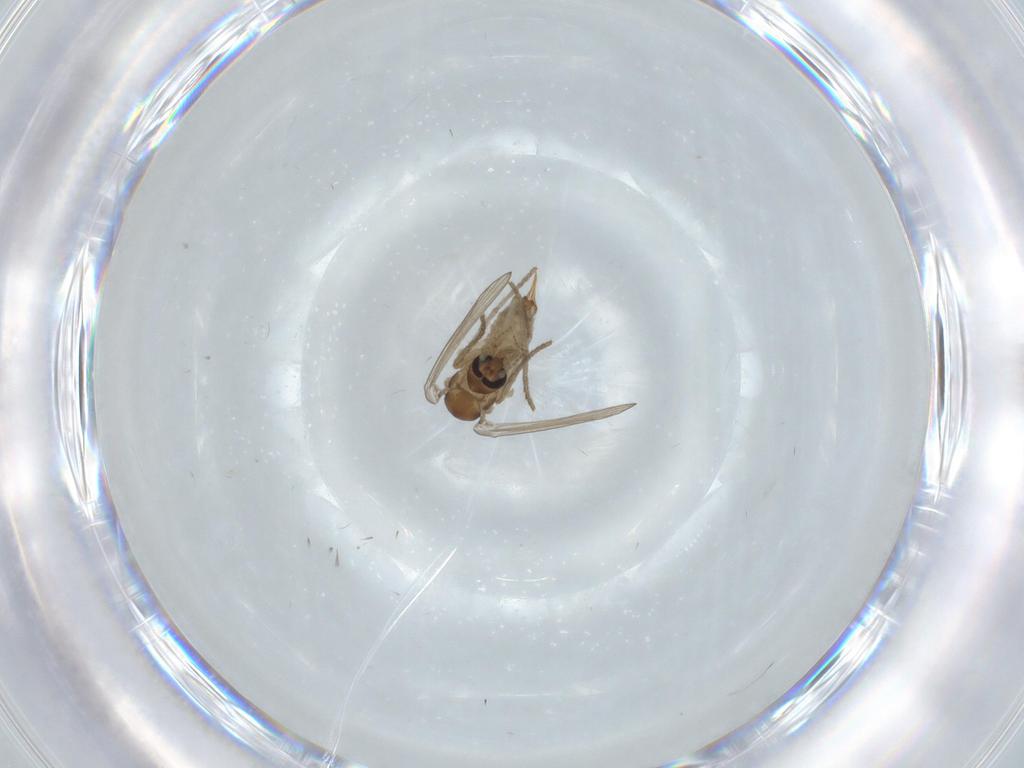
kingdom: Animalia
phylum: Arthropoda
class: Insecta
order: Diptera
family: Psychodidae
